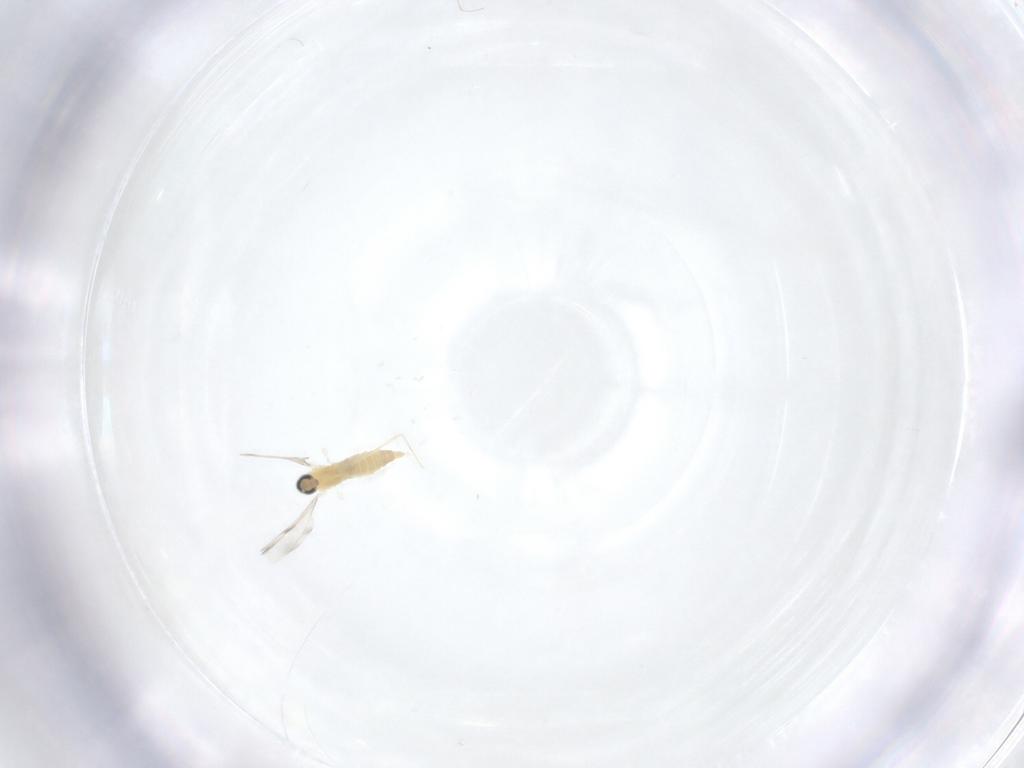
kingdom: Animalia
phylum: Arthropoda
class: Insecta
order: Diptera
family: Cecidomyiidae
